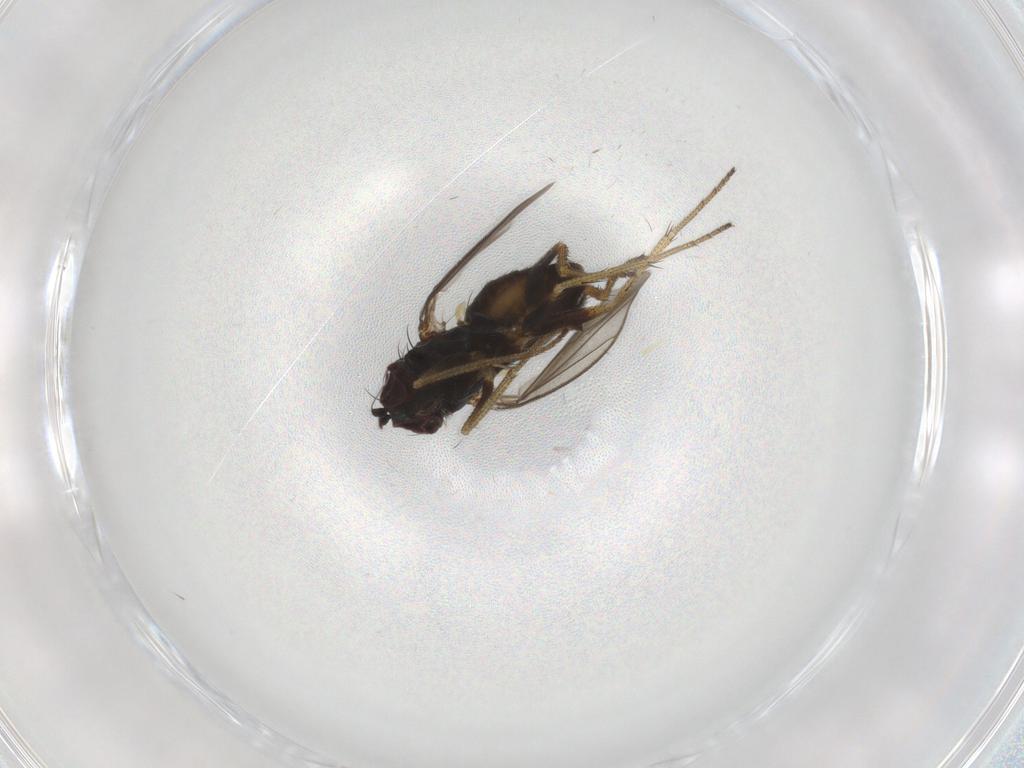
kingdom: Animalia
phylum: Arthropoda
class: Insecta
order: Diptera
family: Dolichopodidae
